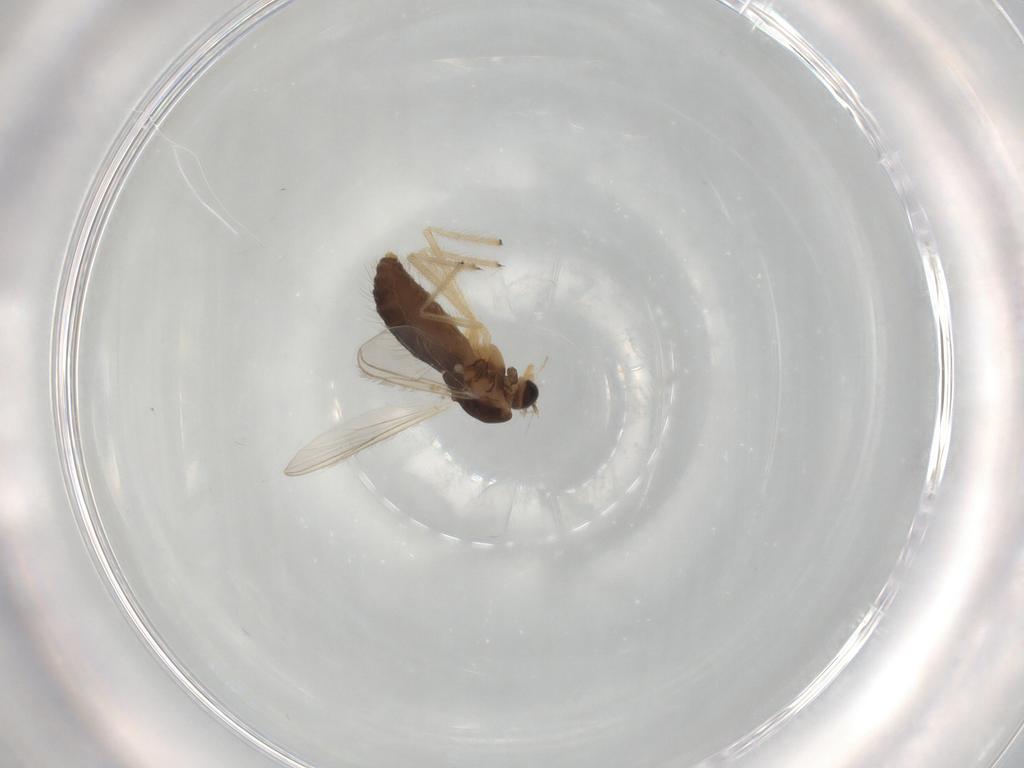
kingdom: Animalia
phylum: Arthropoda
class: Insecta
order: Diptera
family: Chironomidae
